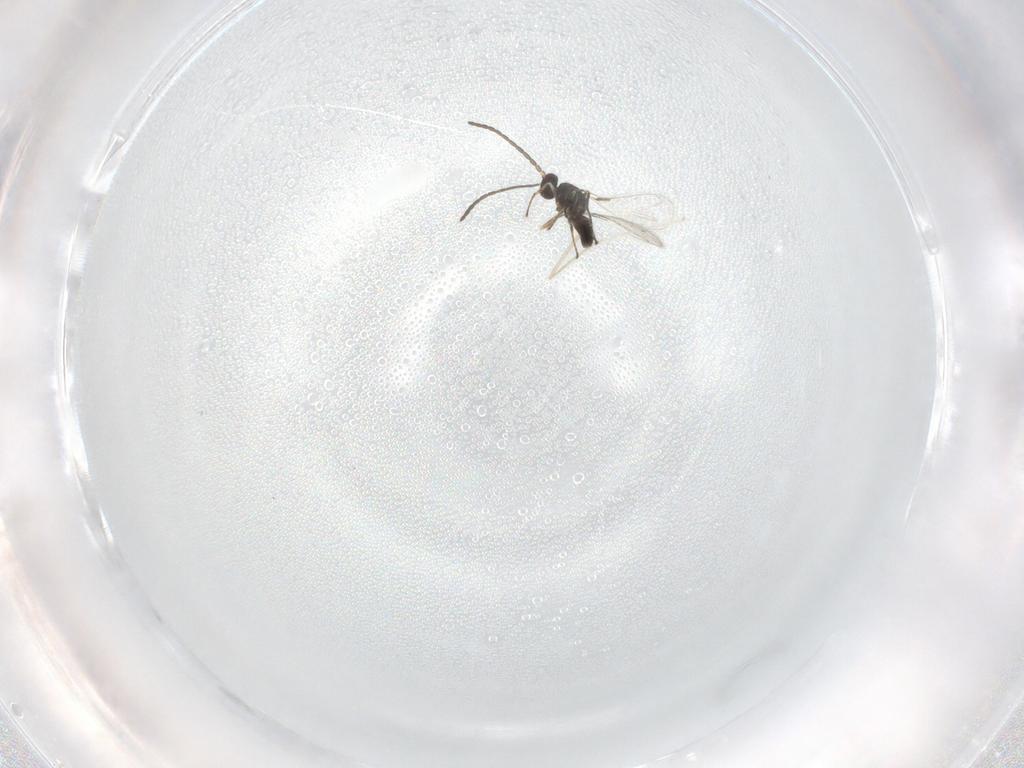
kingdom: Animalia
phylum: Arthropoda
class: Insecta
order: Hymenoptera
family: Mymaridae
